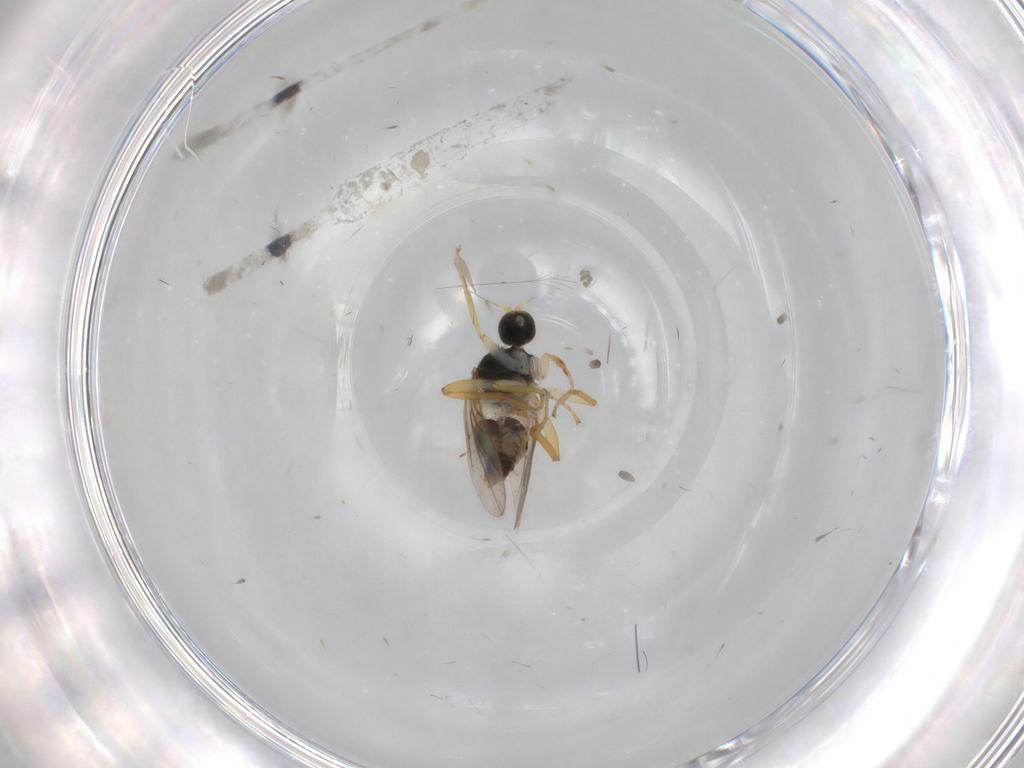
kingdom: Animalia
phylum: Arthropoda
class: Insecta
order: Diptera
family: Hybotidae
